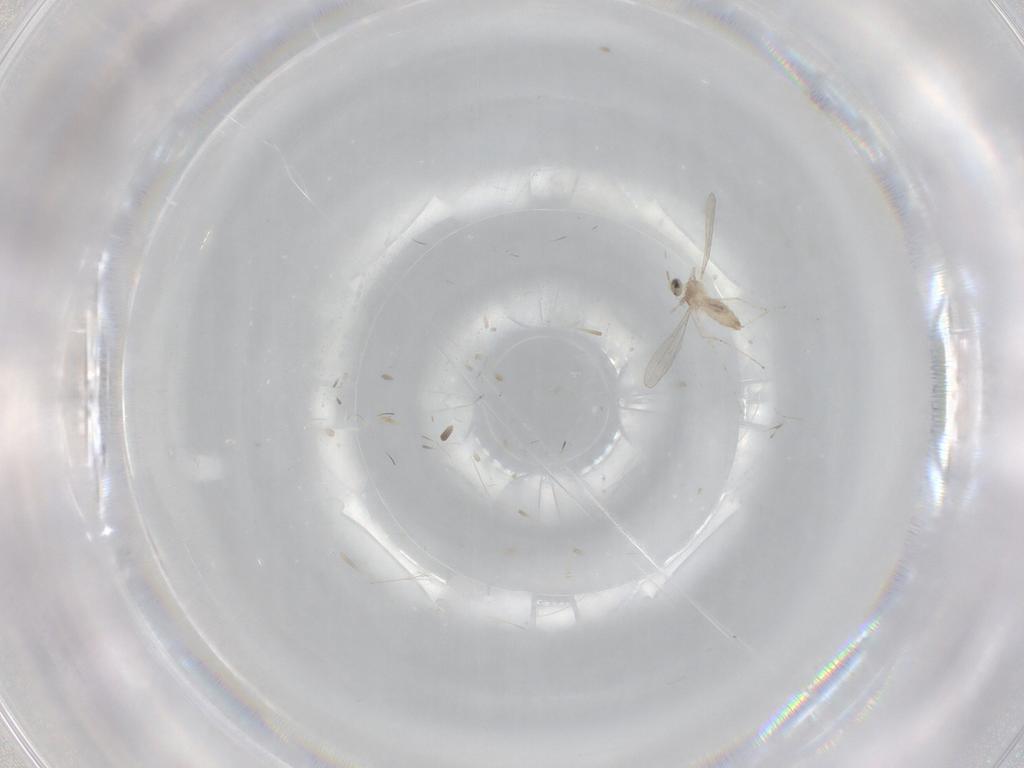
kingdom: Animalia
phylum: Arthropoda
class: Insecta
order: Diptera
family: Cecidomyiidae
